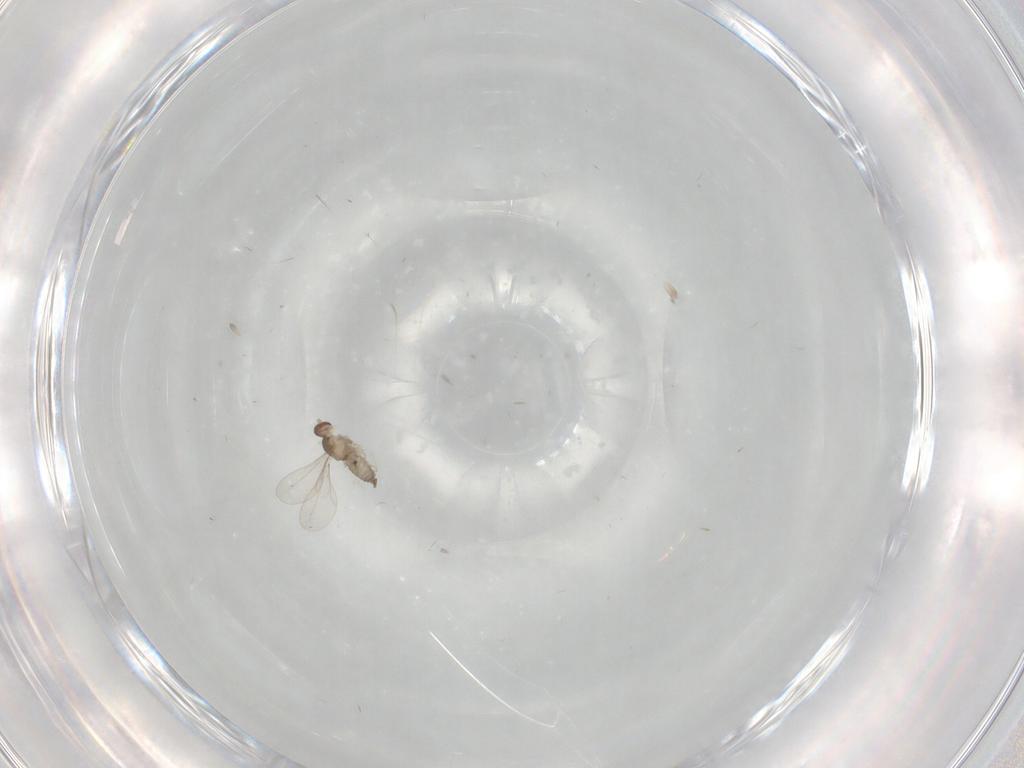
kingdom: Animalia
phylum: Arthropoda
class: Insecta
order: Diptera
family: Cecidomyiidae
